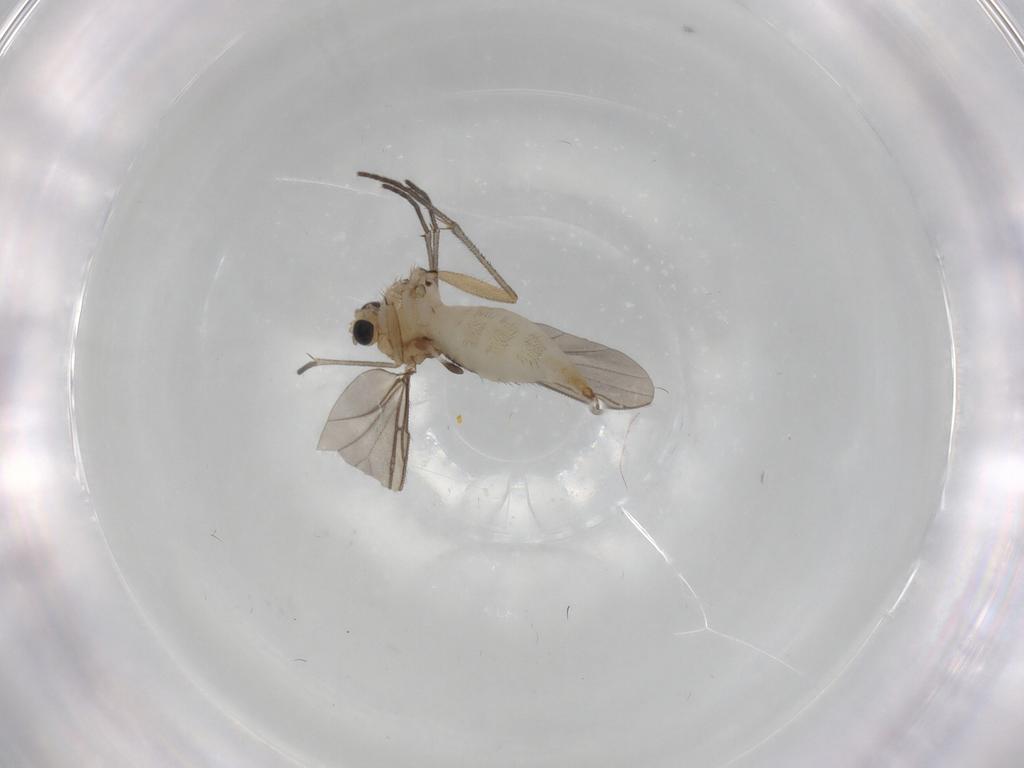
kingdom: Animalia
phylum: Arthropoda
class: Insecta
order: Diptera
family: Sciaridae
